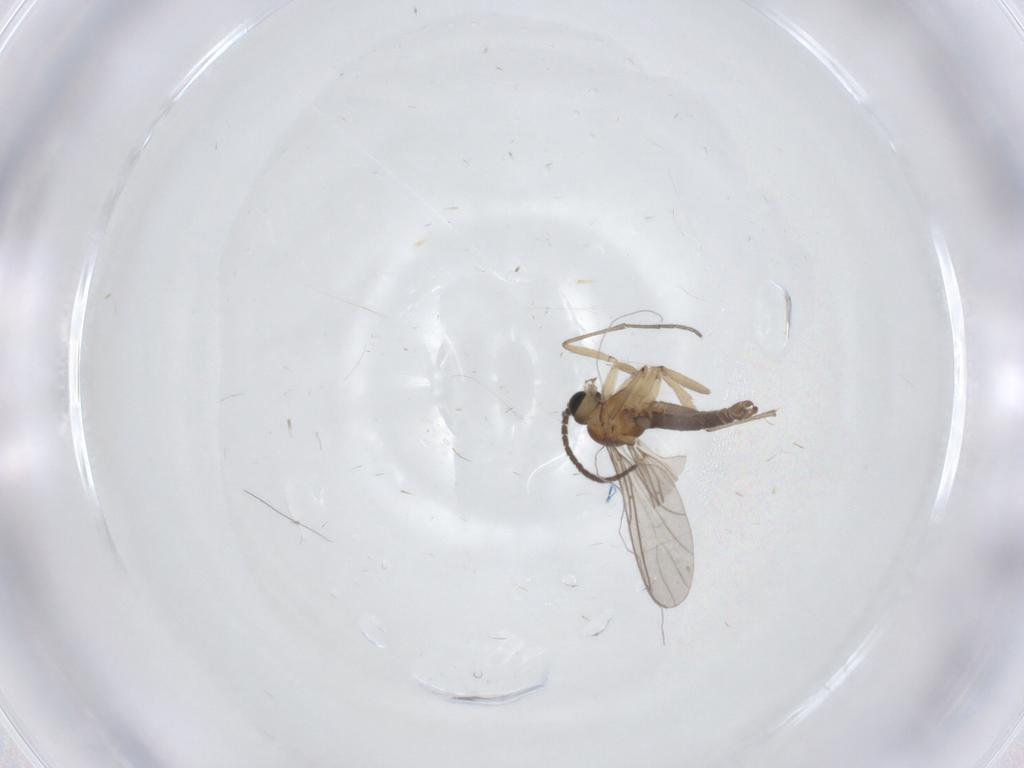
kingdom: Animalia
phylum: Arthropoda
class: Insecta
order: Diptera
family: Sciaridae
